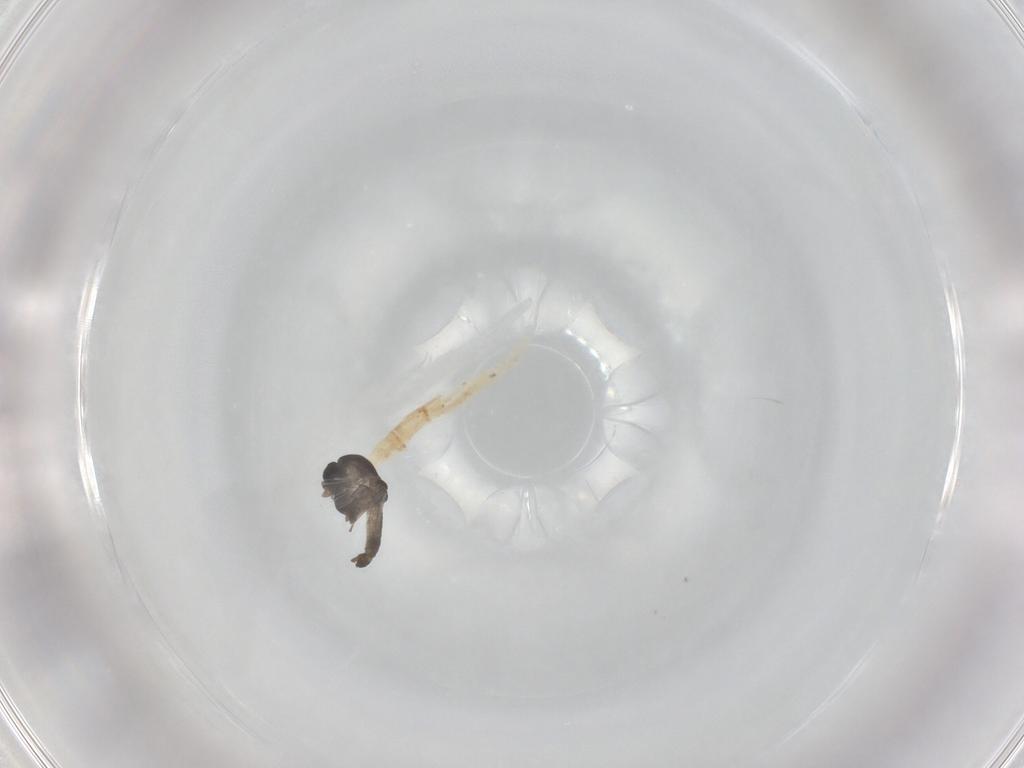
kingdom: Animalia
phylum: Arthropoda
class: Insecta
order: Diptera
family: Chironomidae
